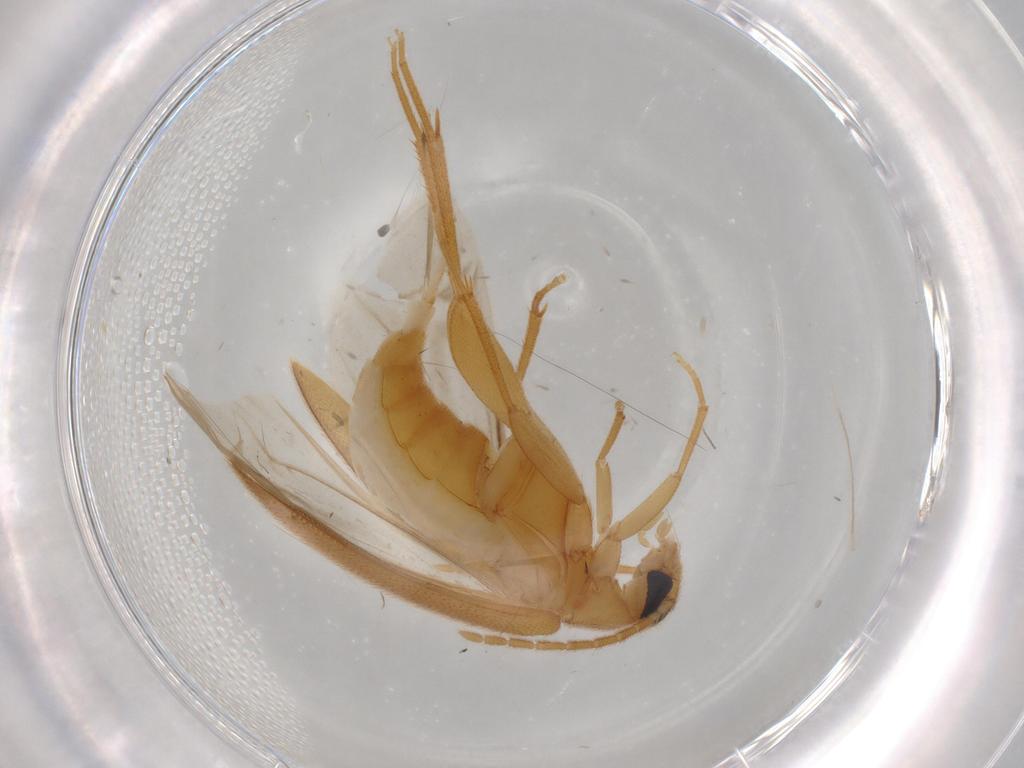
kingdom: Animalia
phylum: Arthropoda
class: Insecta
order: Coleoptera
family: Scraptiidae
